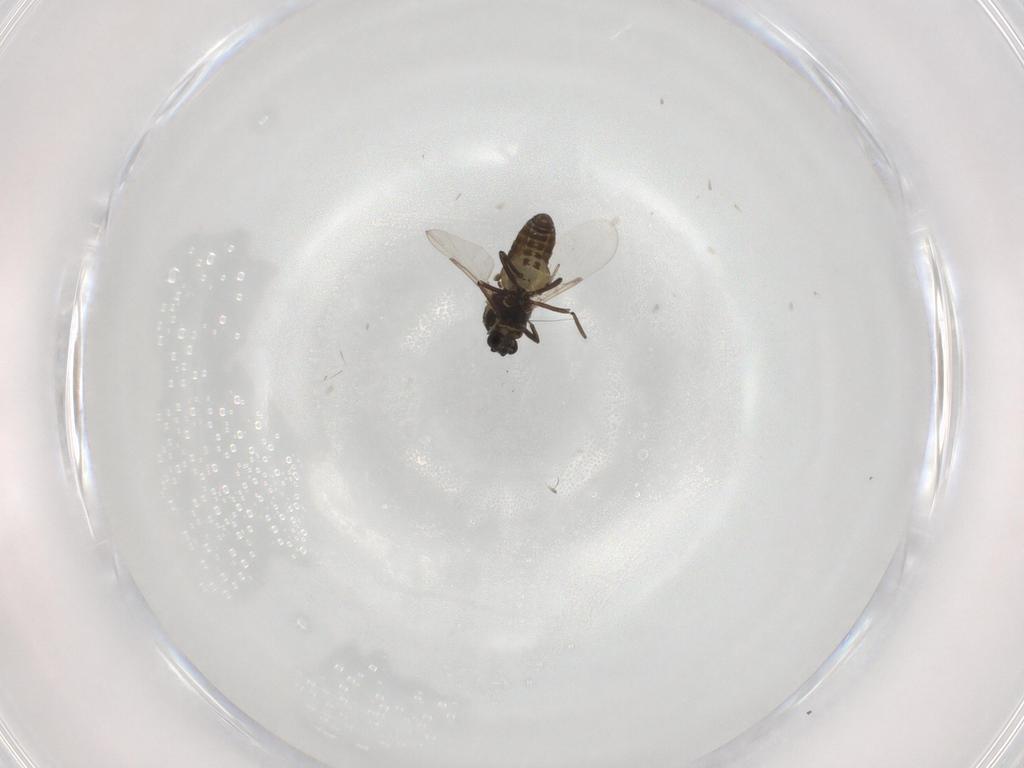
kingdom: Animalia
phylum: Arthropoda
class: Insecta
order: Diptera
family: Ceratopogonidae
